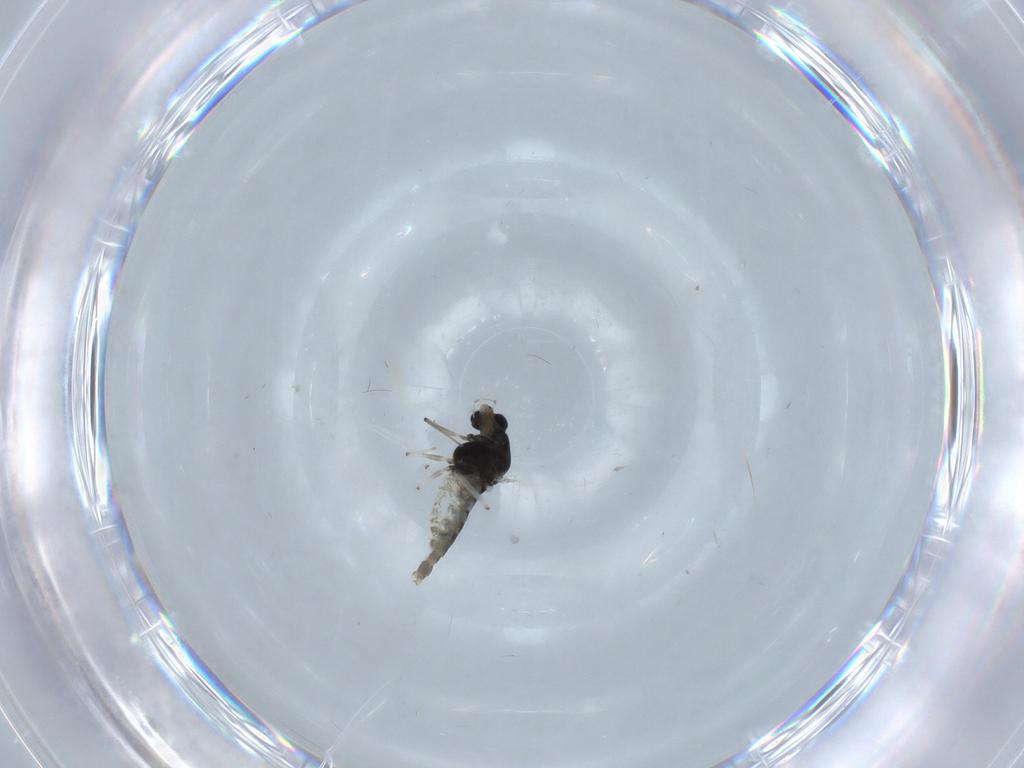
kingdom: Animalia
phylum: Arthropoda
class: Insecta
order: Diptera
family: Chironomidae
